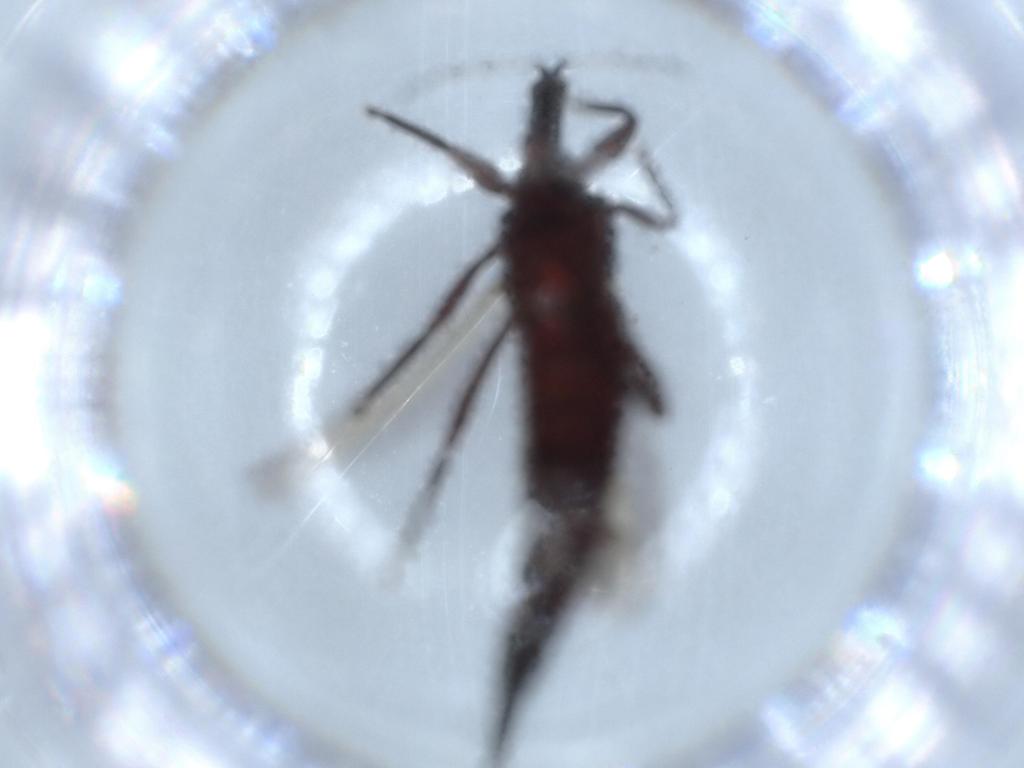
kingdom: Animalia
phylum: Arthropoda
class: Insecta
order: Thysanoptera
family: Phlaeothripidae
